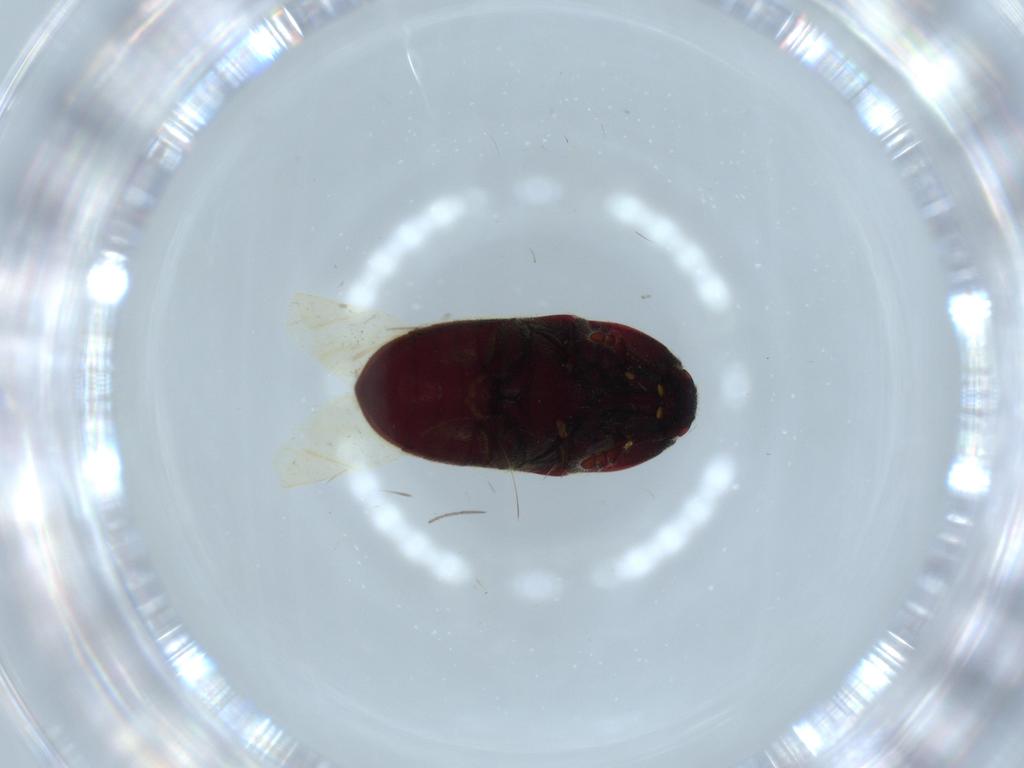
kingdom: Animalia
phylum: Arthropoda
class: Insecta
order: Coleoptera
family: Throscidae
